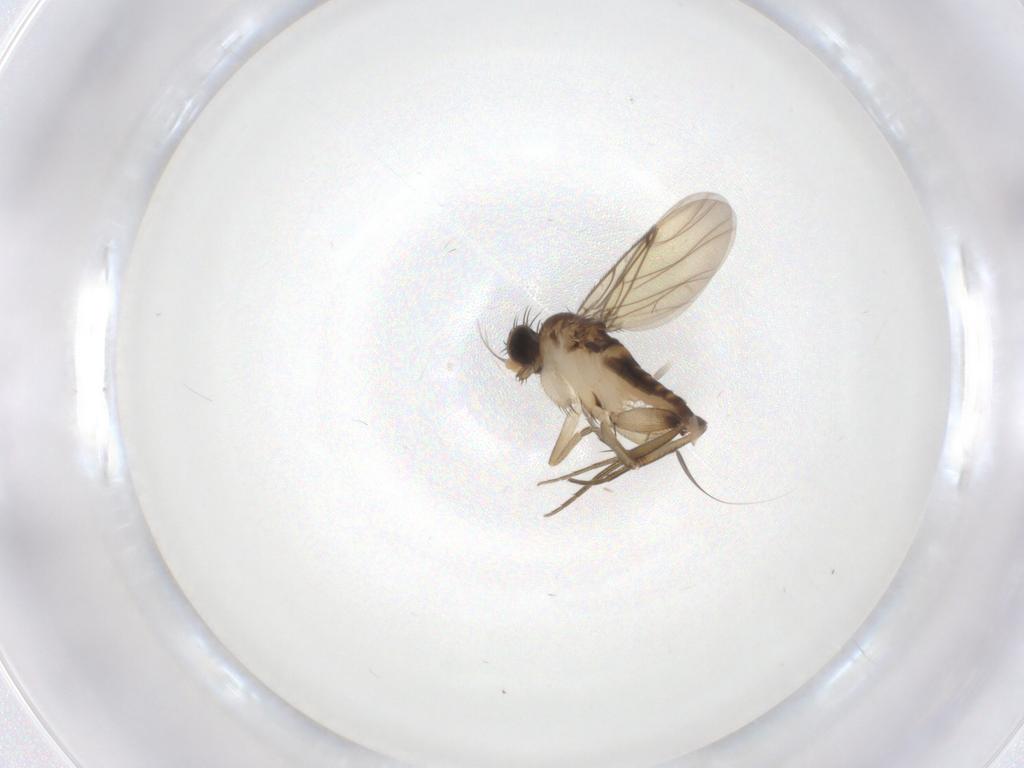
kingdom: Animalia
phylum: Arthropoda
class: Insecta
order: Diptera
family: Phoridae
